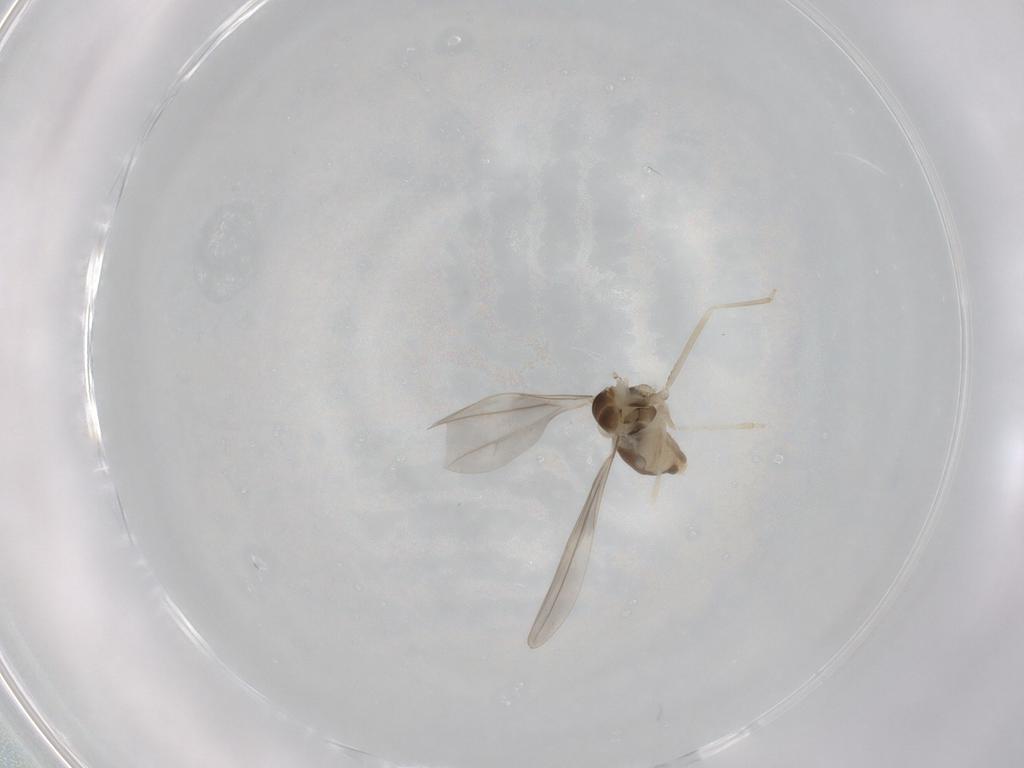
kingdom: Animalia
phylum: Arthropoda
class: Insecta
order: Diptera
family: Cecidomyiidae
